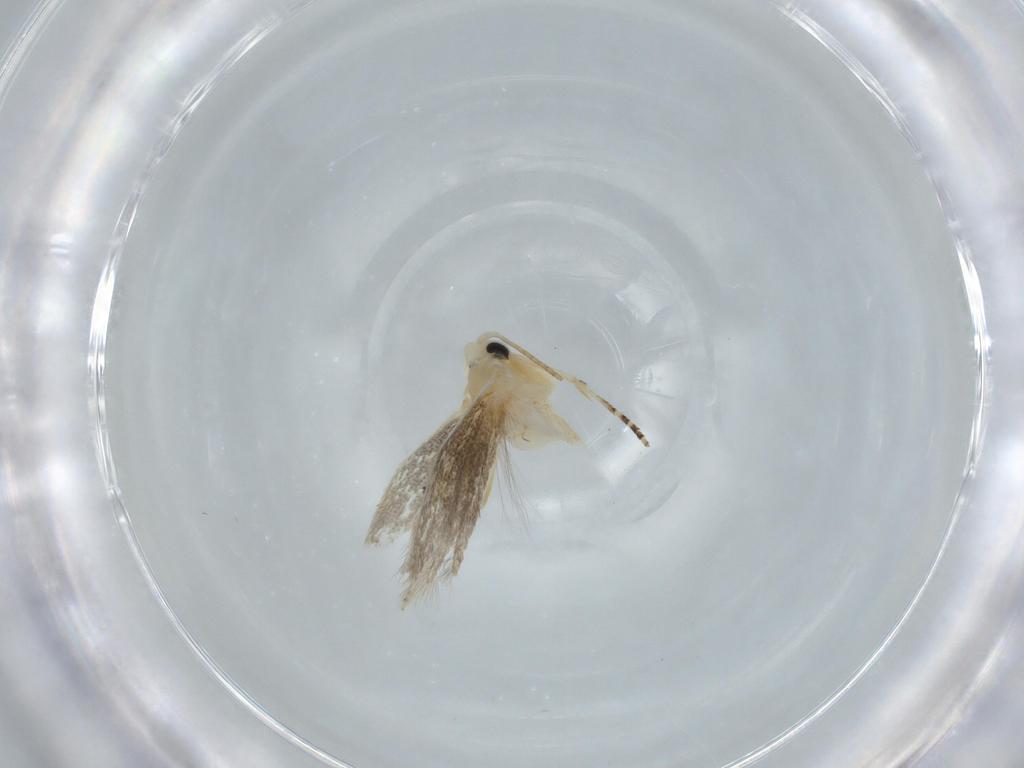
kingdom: Animalia
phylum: Arthropoda
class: Insecta
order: Lepidoptera
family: Bucculatricidae
